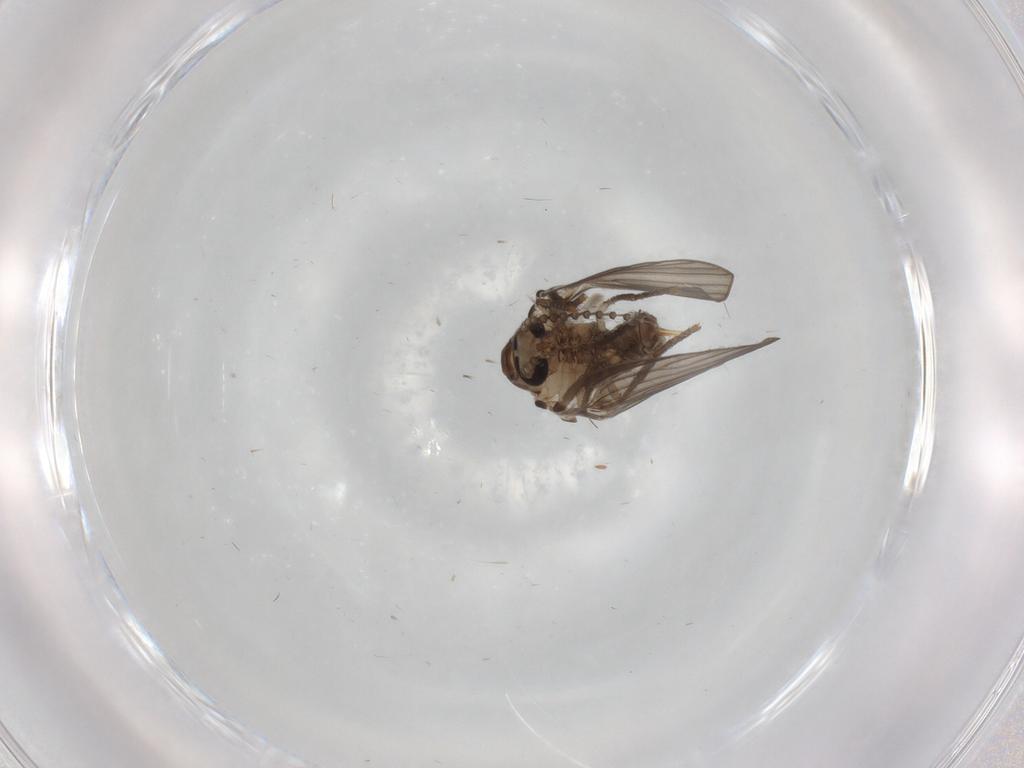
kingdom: Animalia
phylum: Arthropoda
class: Insecta
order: Diptera
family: Psychodidae
